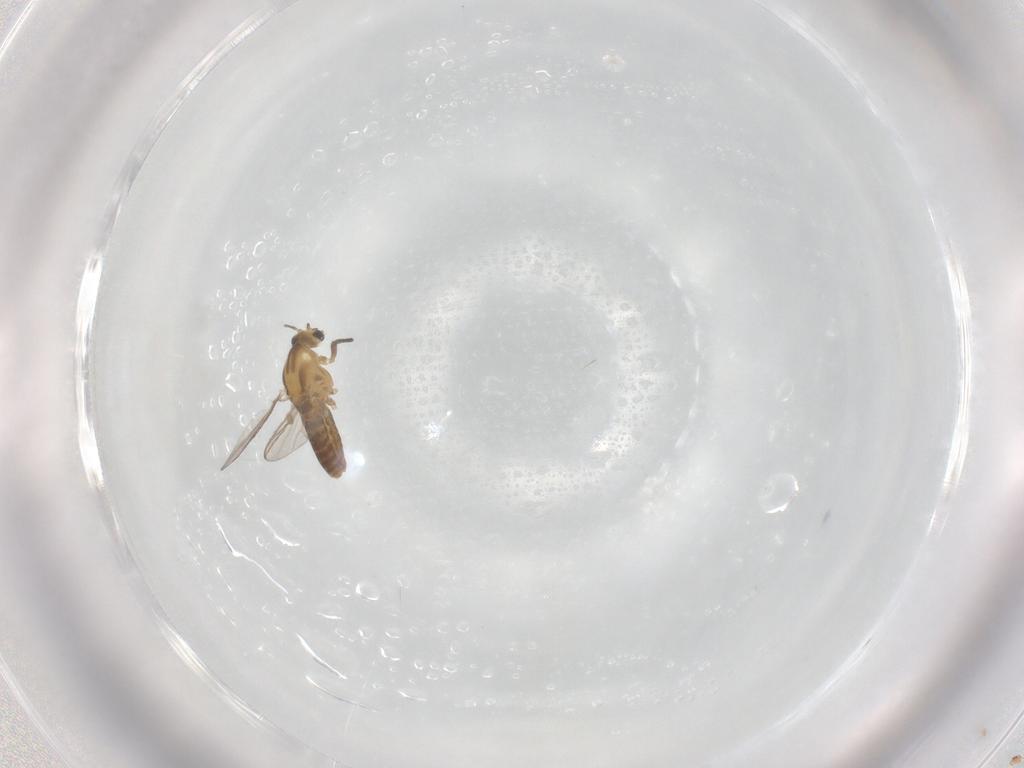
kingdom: Animalia
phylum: Arthropoda
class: Insecta
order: Diptera
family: Chironomidae
